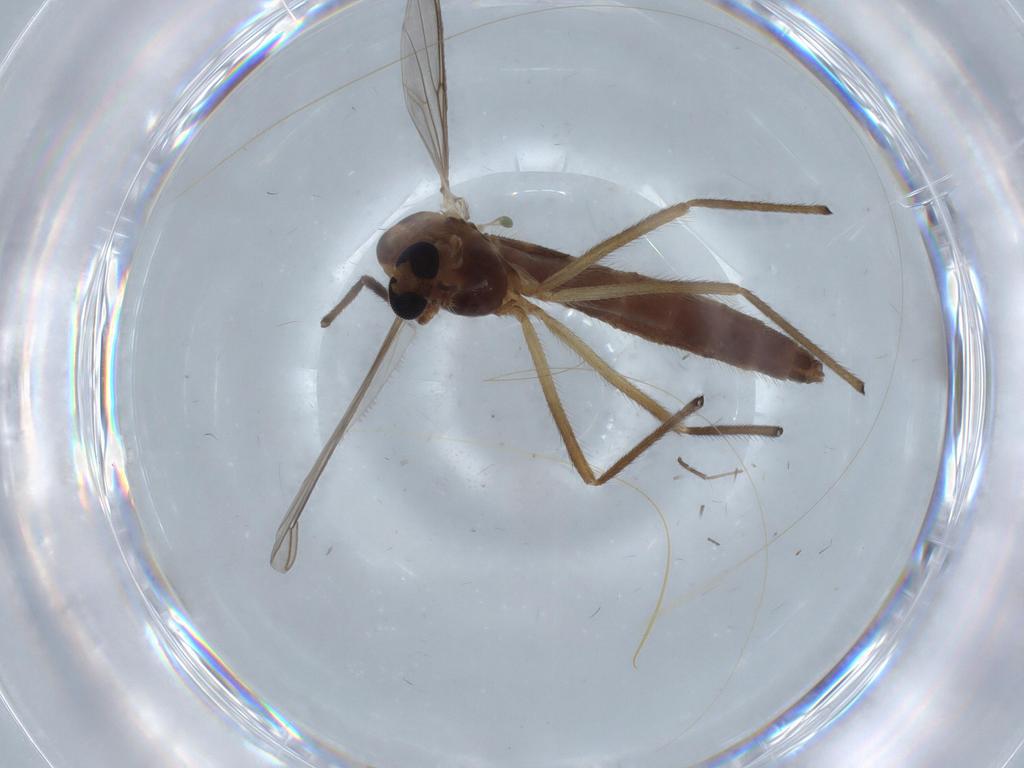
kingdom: Animalia
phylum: Arthropoda
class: Insecta
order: Diptera
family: Chironomidae
